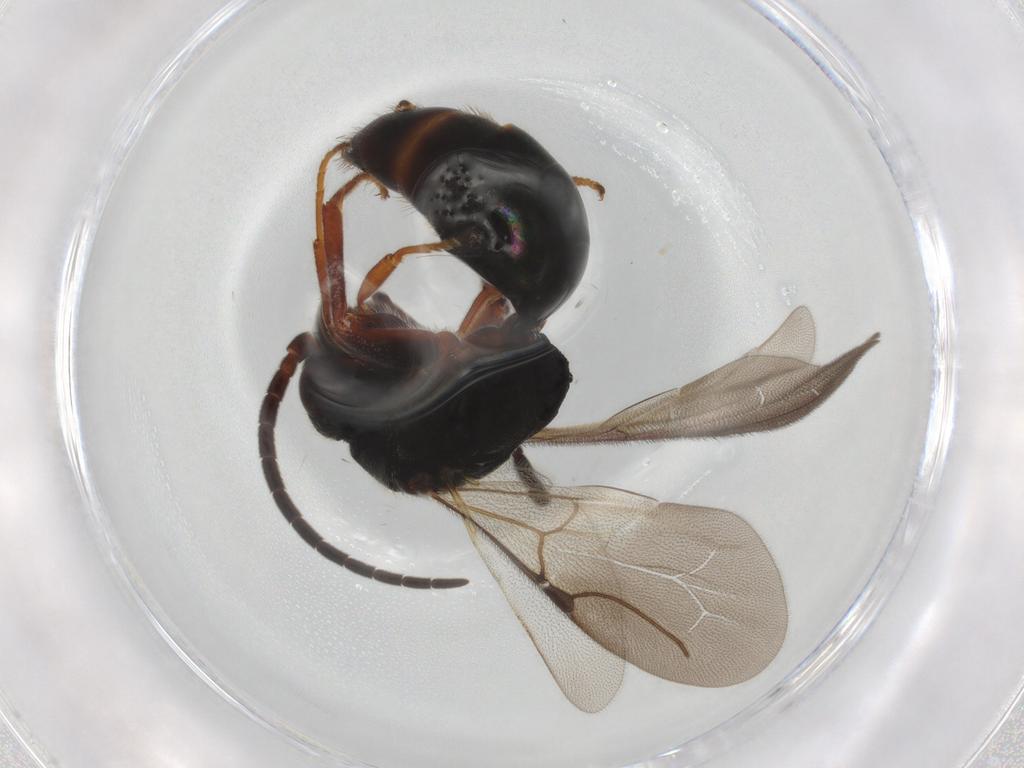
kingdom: Animalia
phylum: Arthropoda
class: Insecta
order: Hymenoptera
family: Bethylidae
